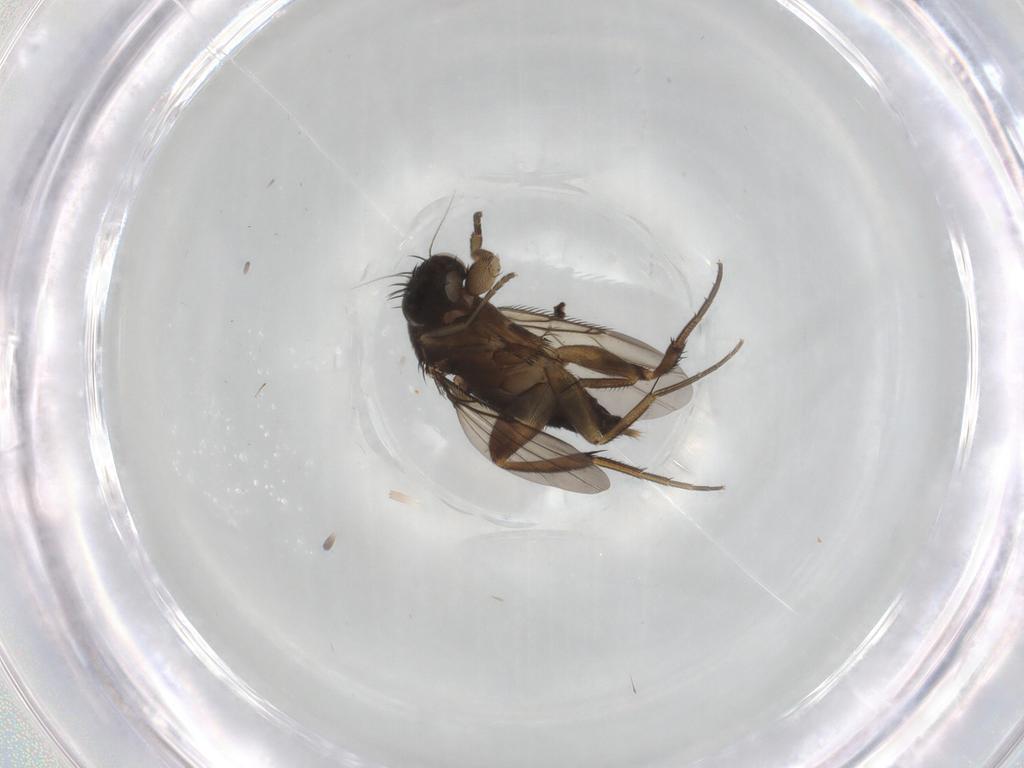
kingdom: Animalia
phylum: Arthropoda
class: Insecta
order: Diptera
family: Phoridae
